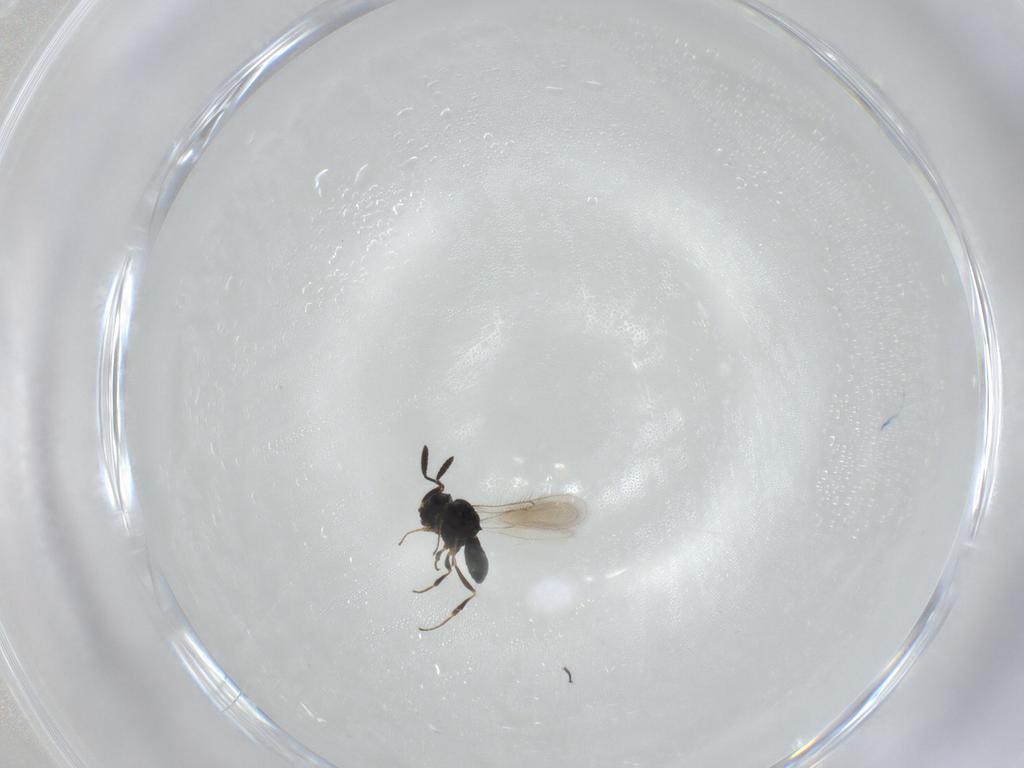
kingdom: Animalia
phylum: Arthropoda
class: Insecta
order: Hymenoptera
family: Scelionidae
